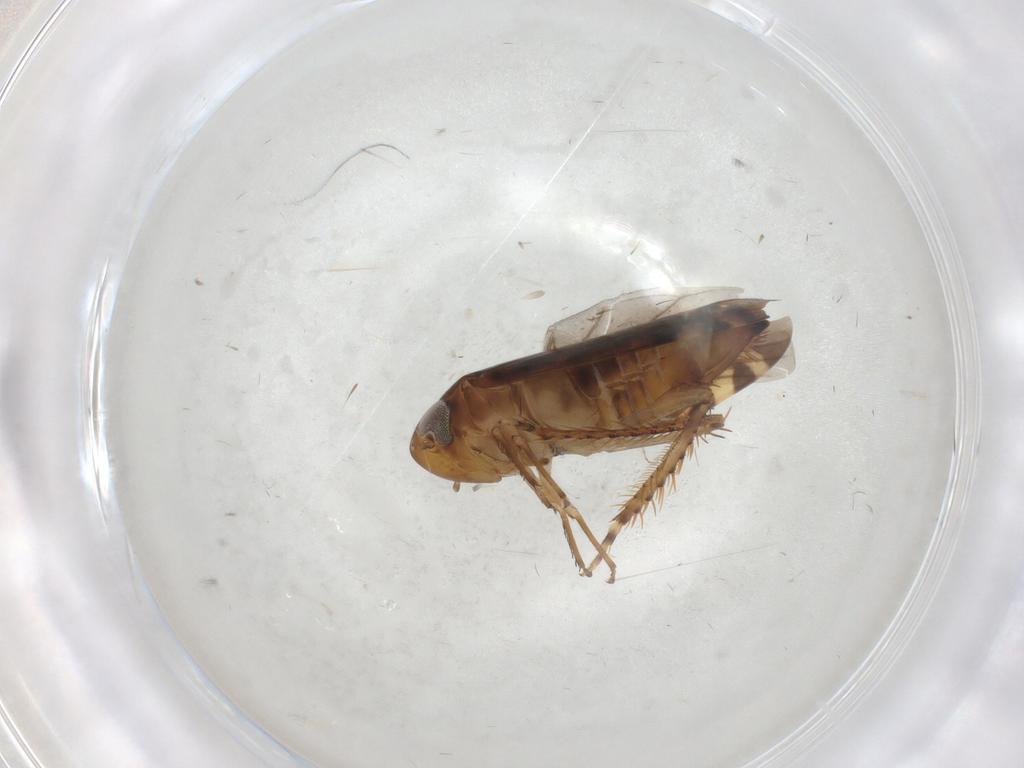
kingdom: Animalia
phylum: Arthropoda
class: Insecta
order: Hemiptera
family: Cicadellidae
